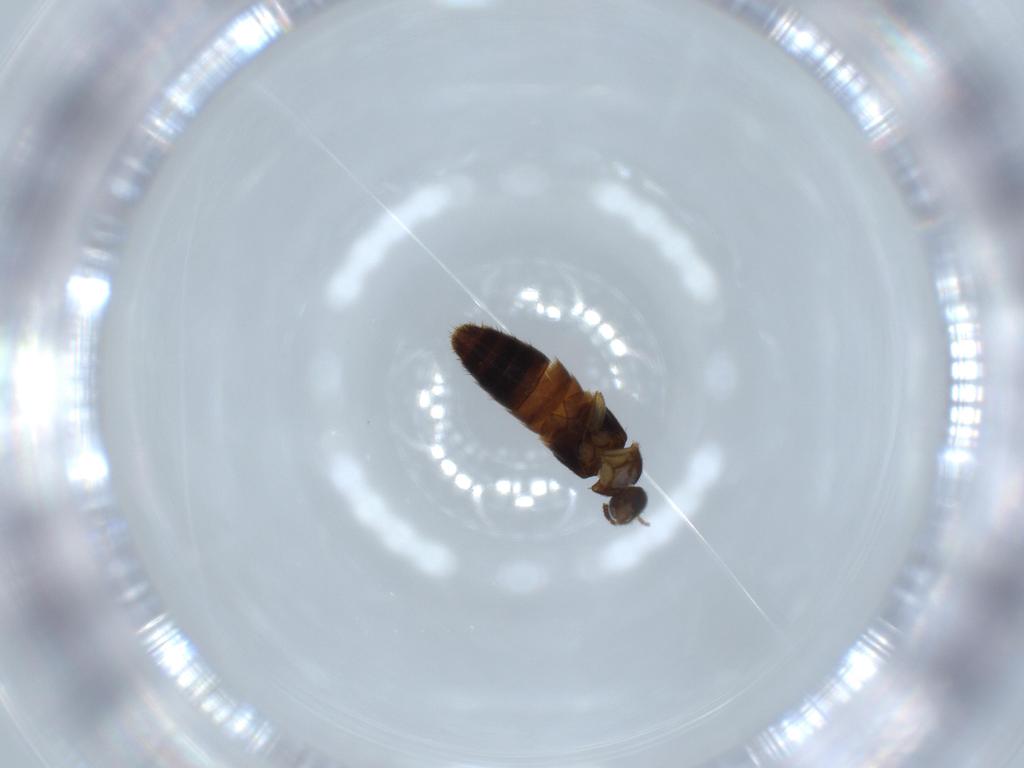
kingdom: Animalia
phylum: Arthropoda
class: Insecta
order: Coleoptera
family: Staphylinidae
